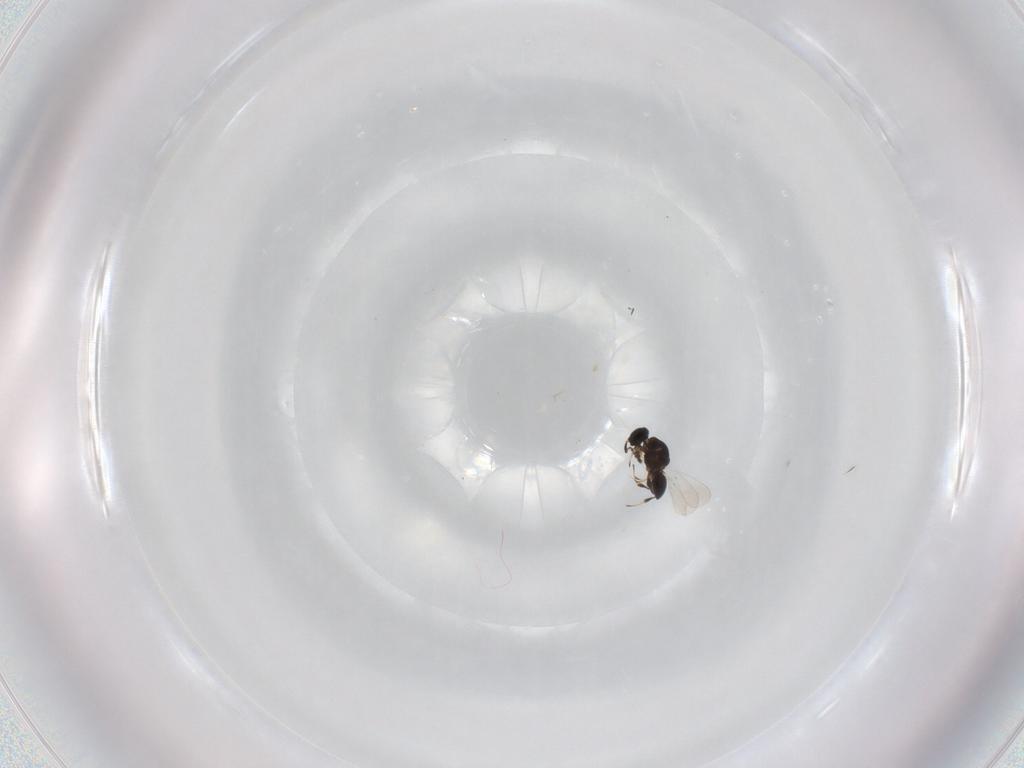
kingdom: Animalia
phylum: Arthropoda
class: Insecta
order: Hymenoptera
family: Platygastridae
